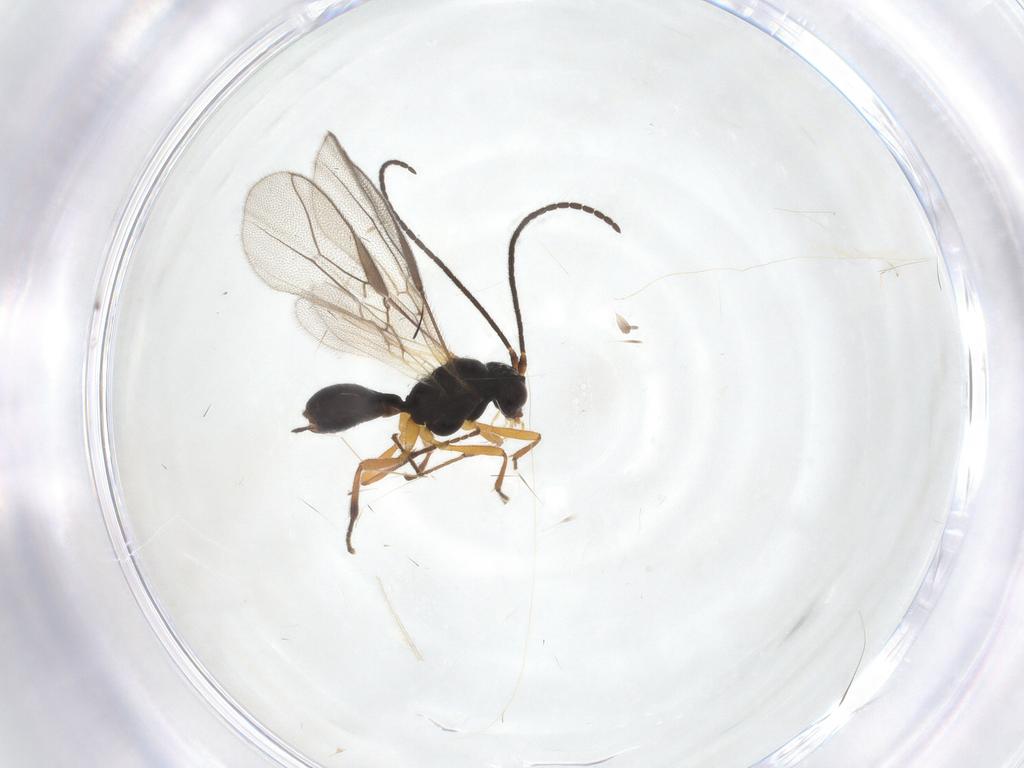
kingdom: Animalia
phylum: Arthropoda
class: Insecta
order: Hymenoptera
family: Braconidae
